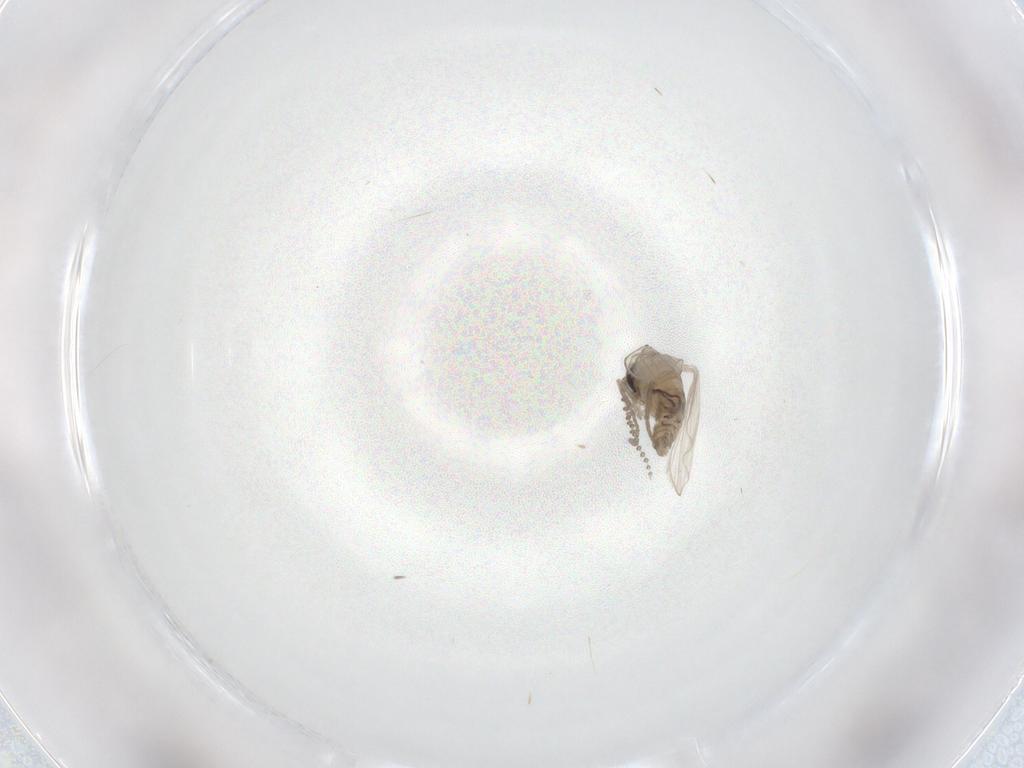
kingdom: Animalia
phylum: Arthropoda
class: Insecta
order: Diptera
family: Psychodidae
